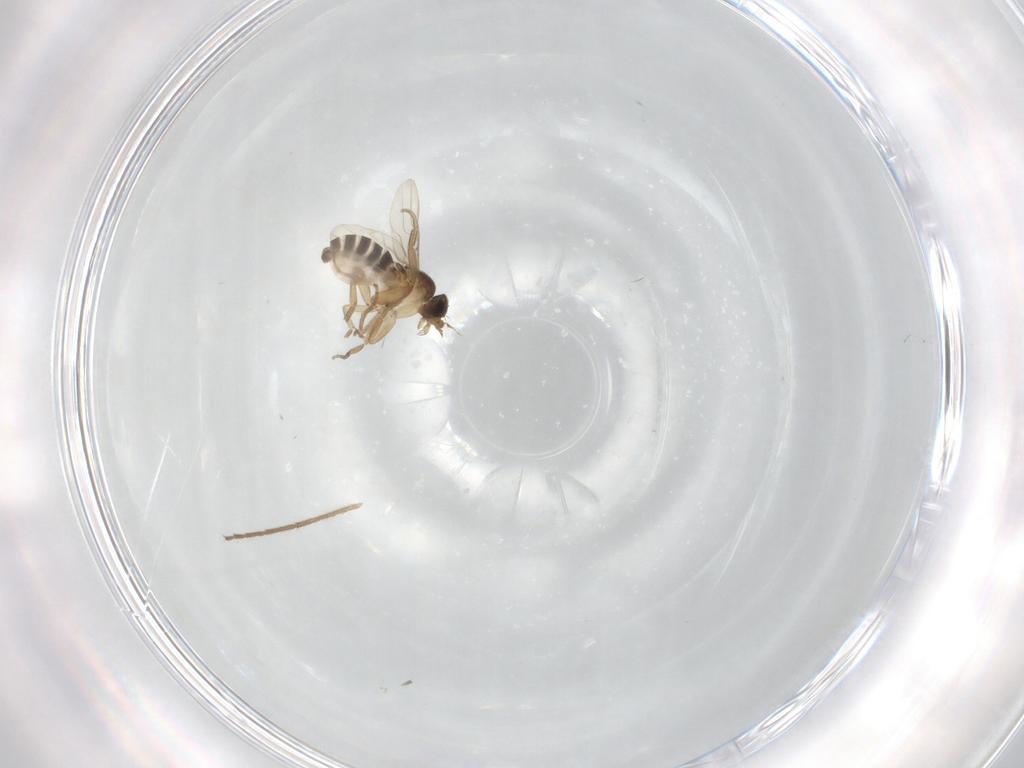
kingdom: Animalia
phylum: Arthropoda
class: Insecta
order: Diptera
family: Phoridae
